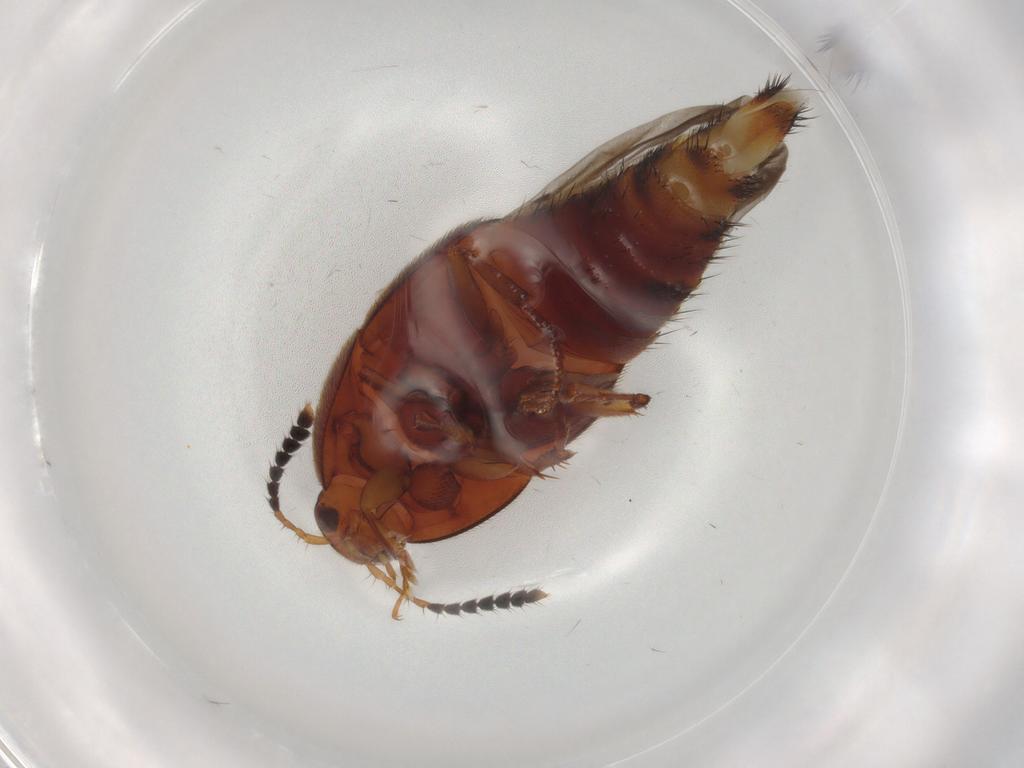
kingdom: Animalia
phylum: Arthropoda
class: Insecta
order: Coleoptera
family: Staphylinidae
